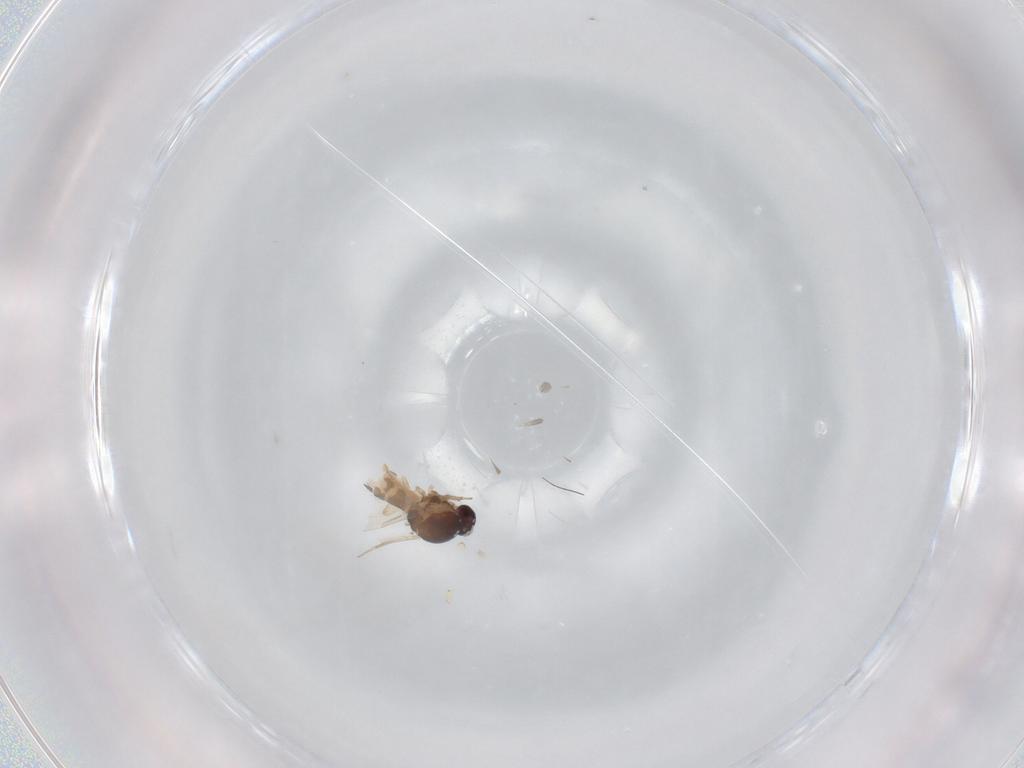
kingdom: Animalia
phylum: Arthropoda
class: Insecta
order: Diptera
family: Ceratopogonidae
